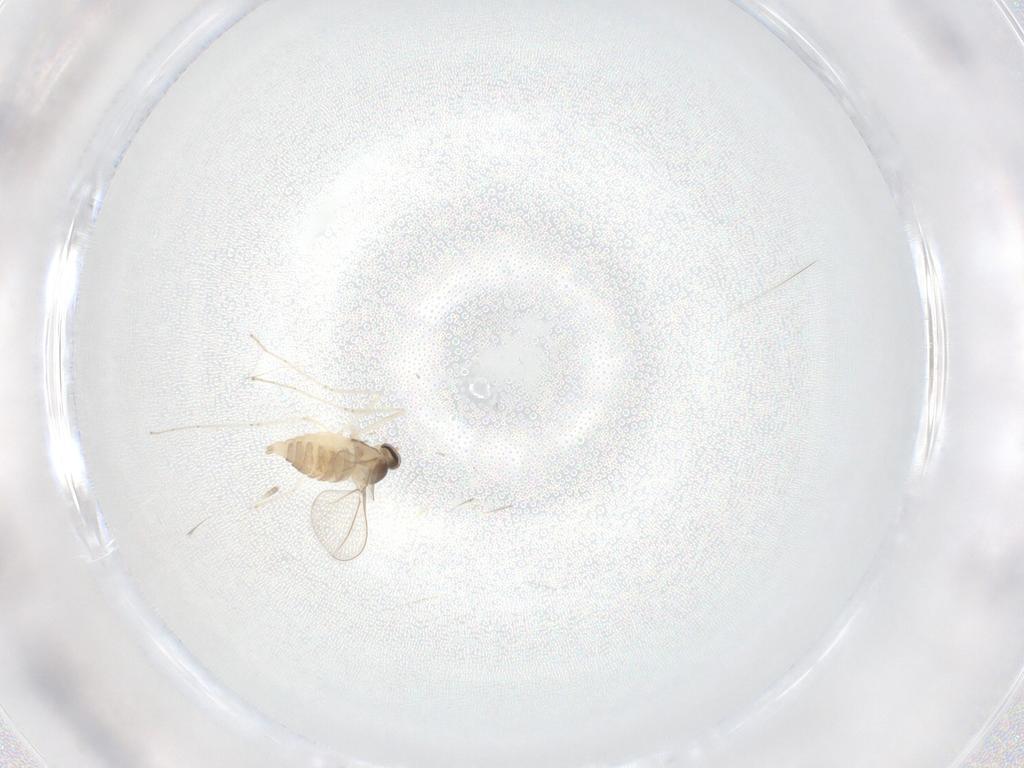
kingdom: Animalia
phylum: Arthropoda
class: Insecta
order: Diptera
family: Cecidomyiidae
